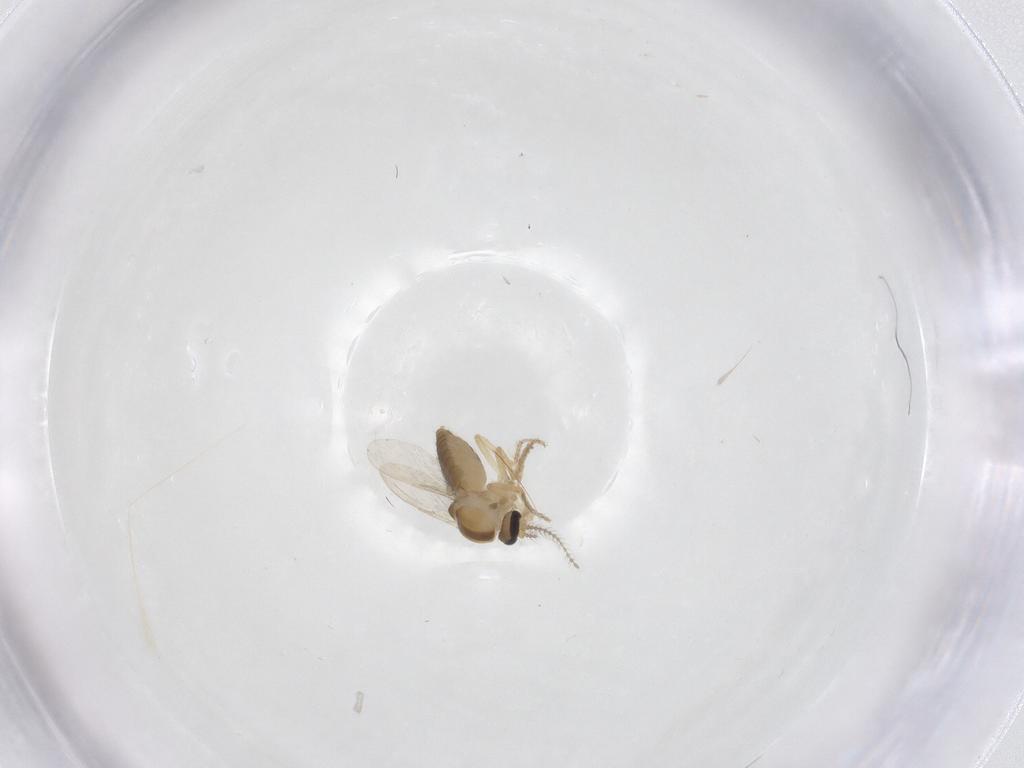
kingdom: Animalia
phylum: Arthropoda
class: Insecta
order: Diptera
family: Ceratopogonidae
